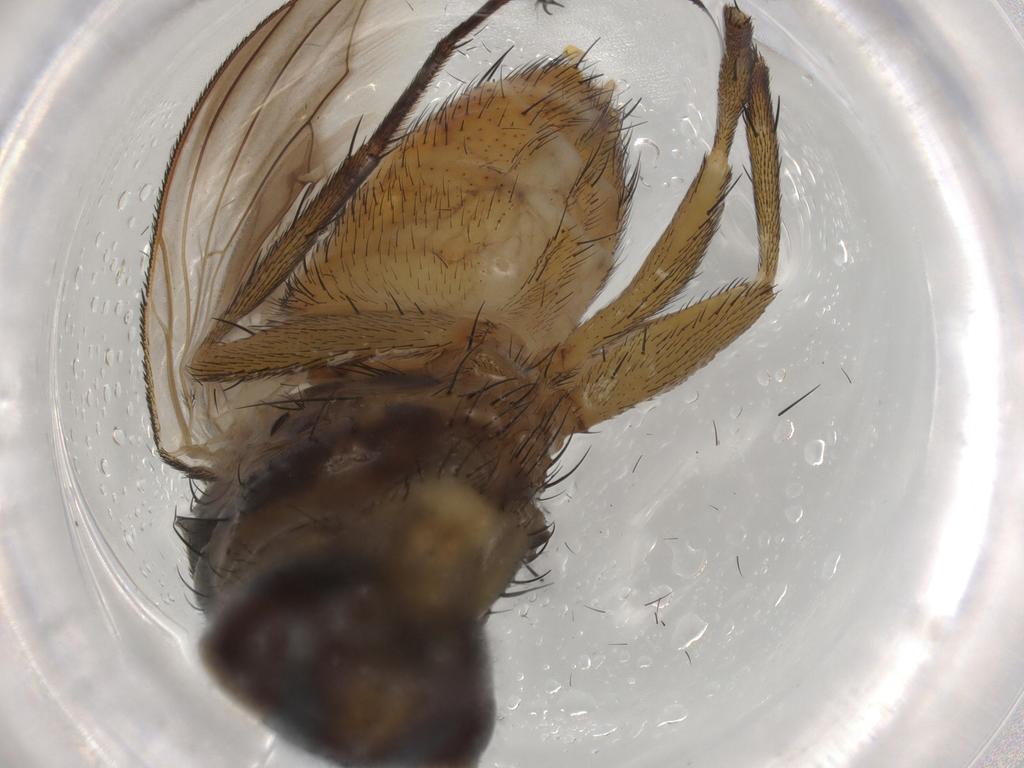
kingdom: Animalia
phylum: Arthropoda
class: Insecta
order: Diptera
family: Calliphoridae
